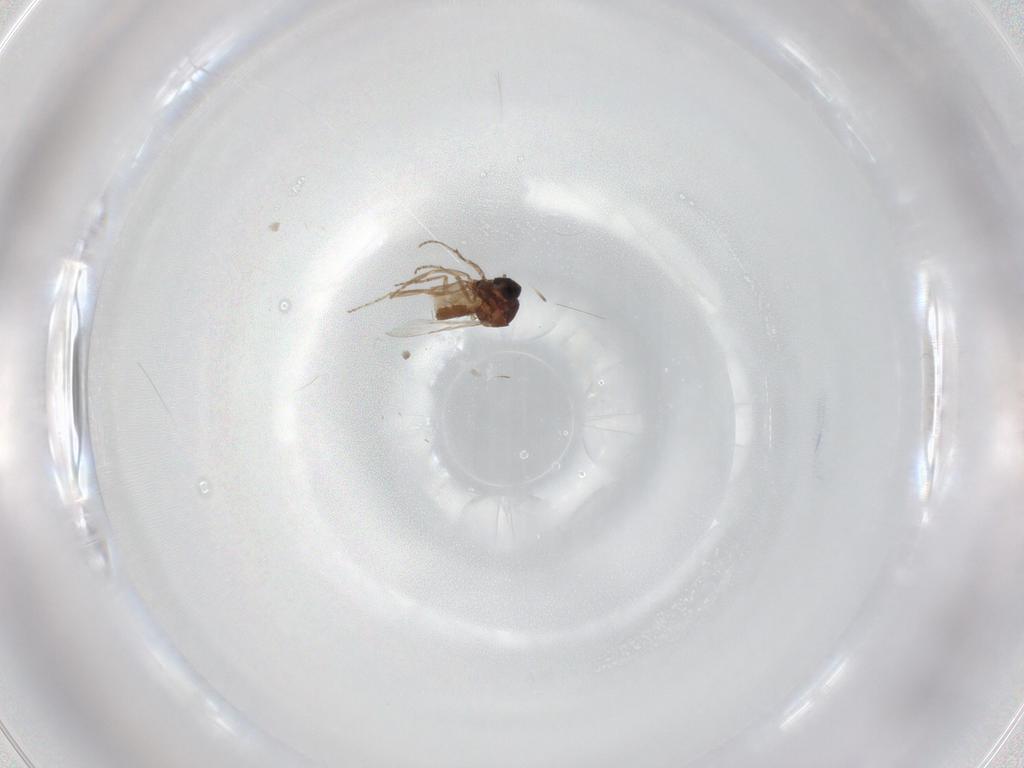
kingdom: Animalia
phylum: Arthropoda
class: Insecta
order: Diptera
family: Ceratopogonidae
